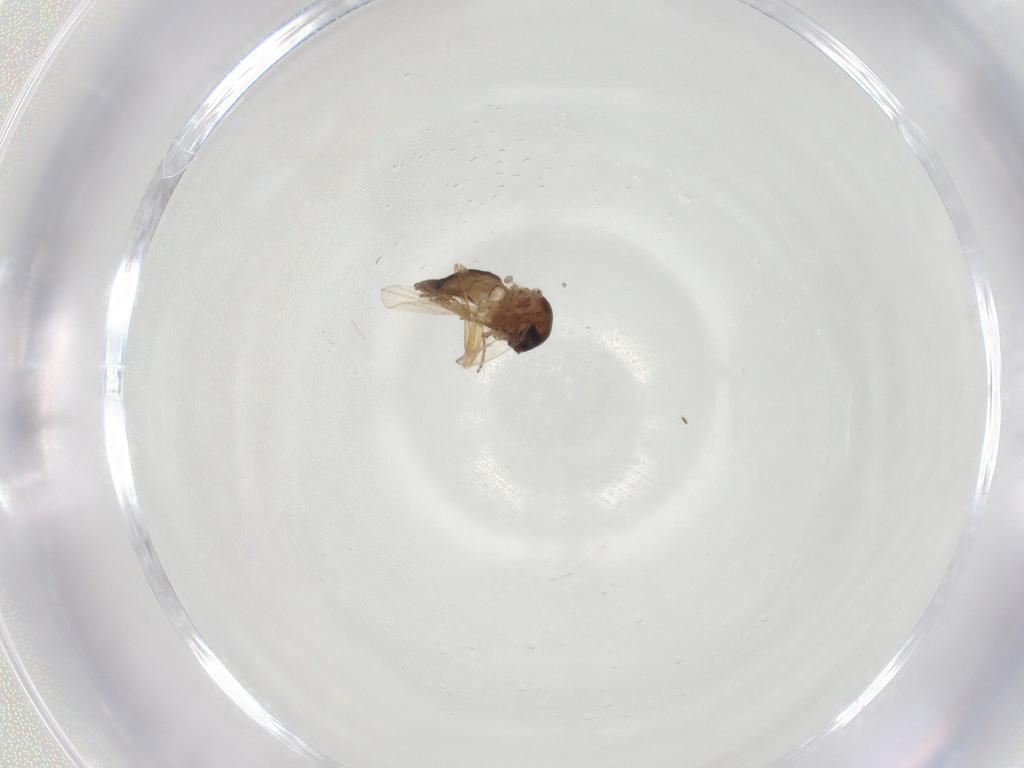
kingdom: Animalia
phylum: Arthropoda
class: Insecta
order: Diptera
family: Ceratopogonidae
